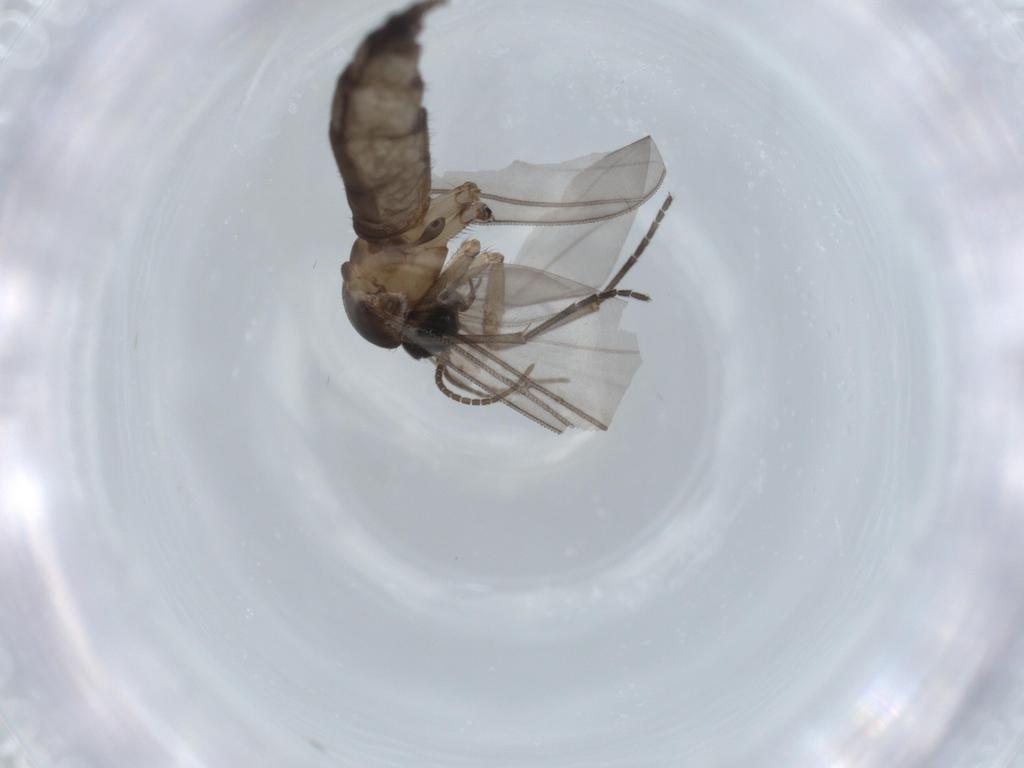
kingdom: Animalia
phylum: Arthropoda
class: Insecta
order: Diptera
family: Sciaridae
